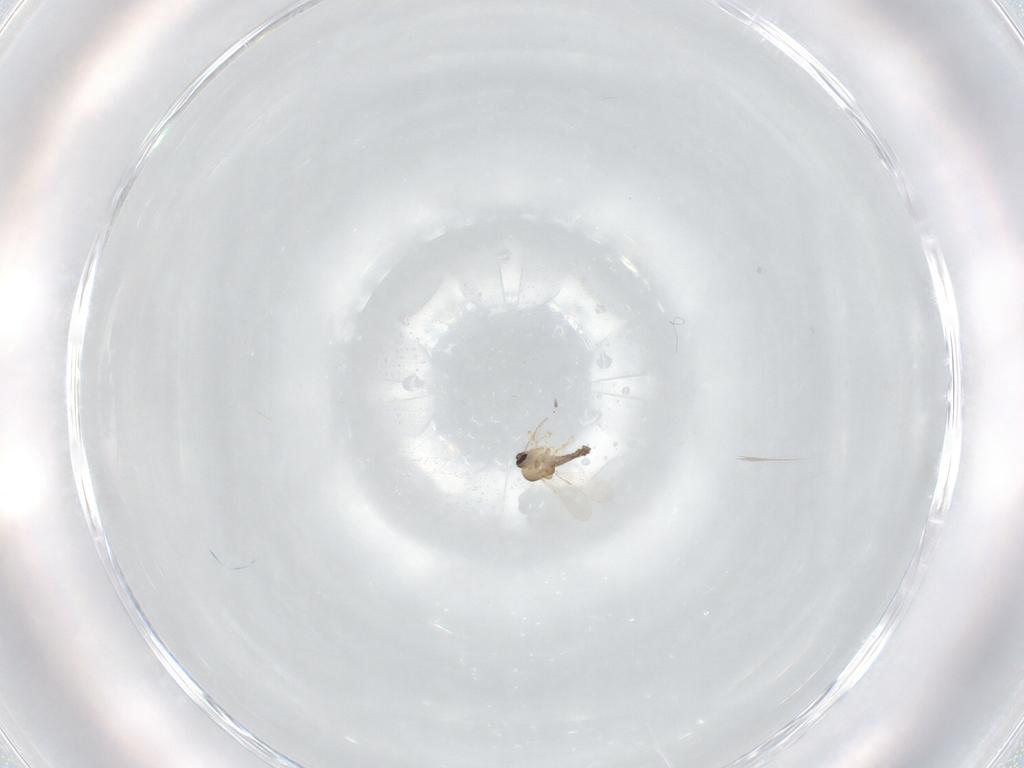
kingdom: Animalia
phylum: Arthropoda
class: Insecta
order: Diptera
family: Ceratopogonidae
